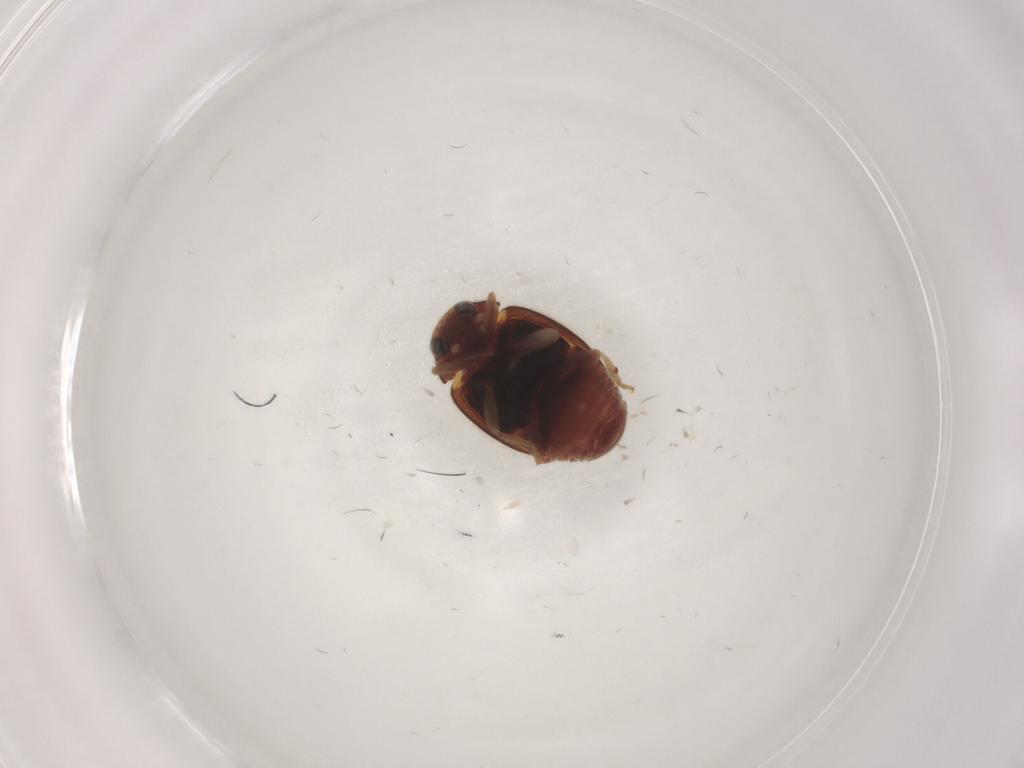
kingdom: Animalia
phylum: Arthropoda
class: Insecta
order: Coleoptera
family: Coccinellidae
